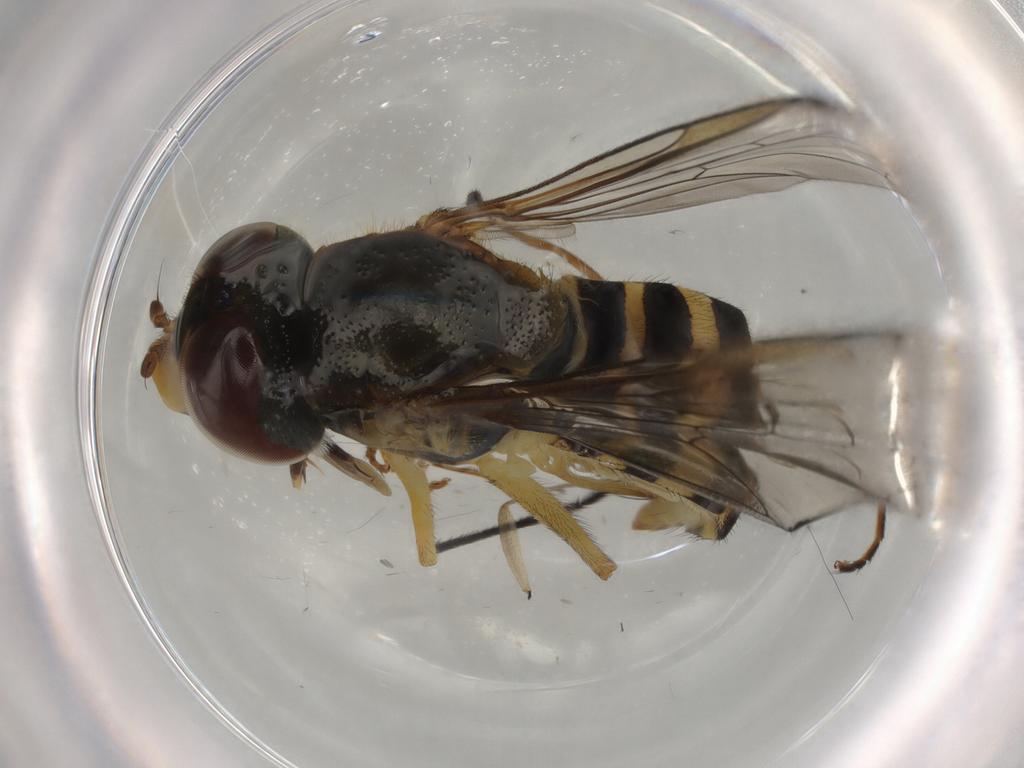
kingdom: Animalia
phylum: Arthropoda
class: Insecta
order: Diptera
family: Syrphidae
